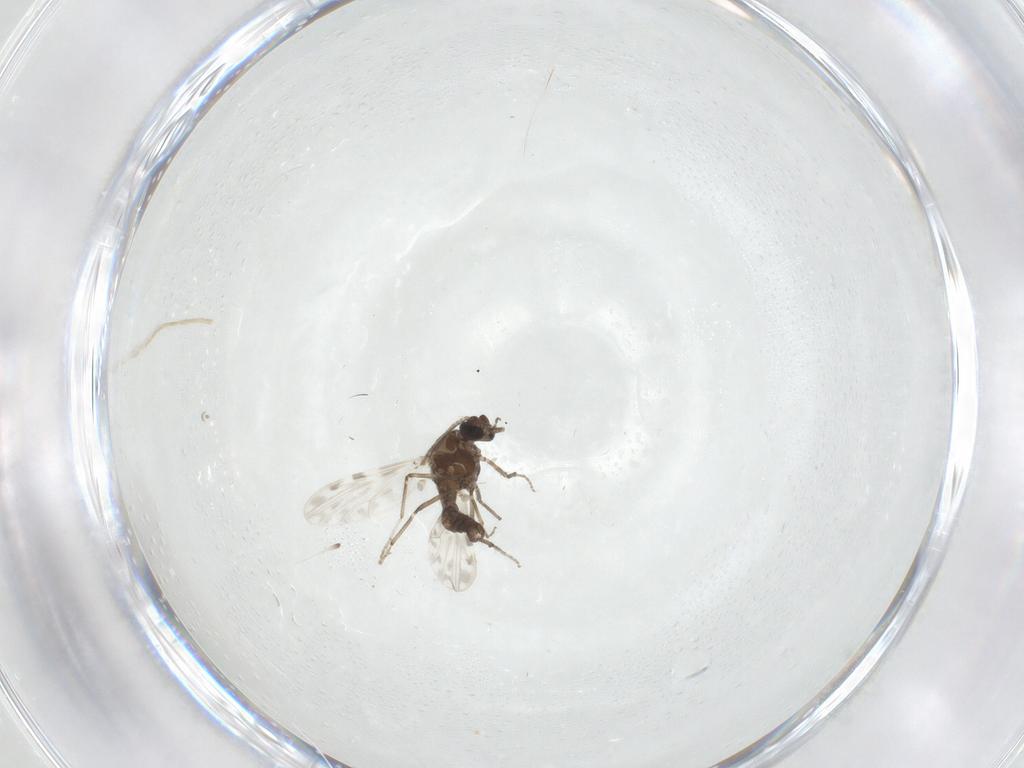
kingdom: Animalia
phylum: Arthropoda
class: Insecta
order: Diptera
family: Ceratopogonidae
